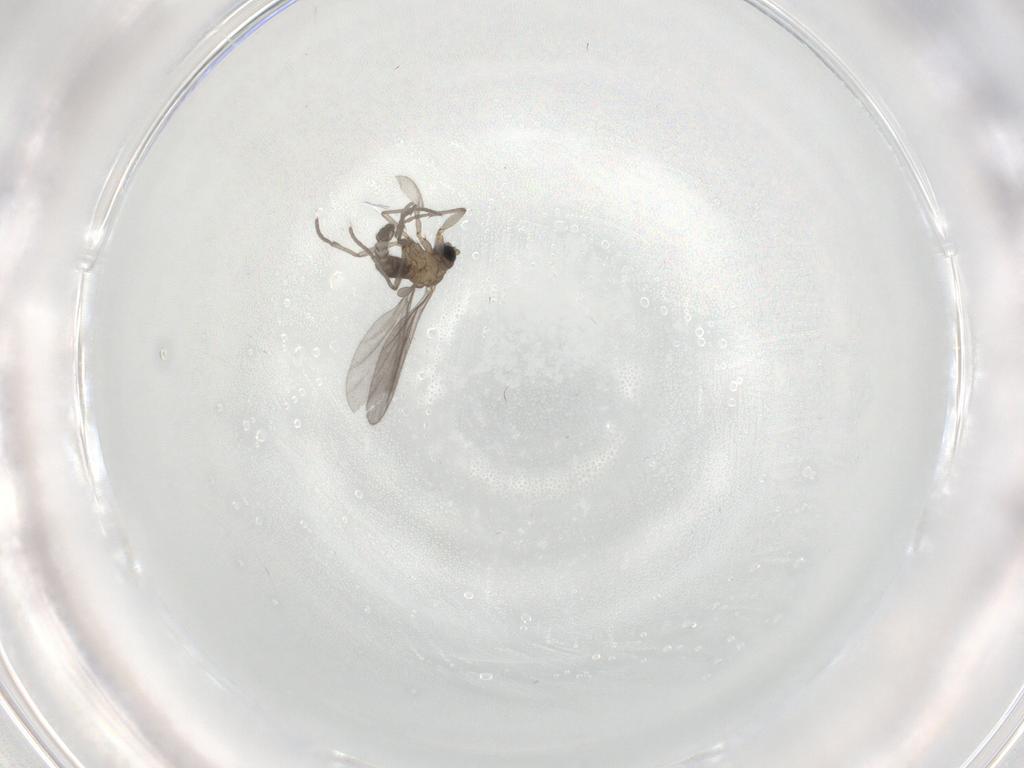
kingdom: Animalia
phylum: Arthropoda
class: Insecta
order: Diptera
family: Sciaridae
